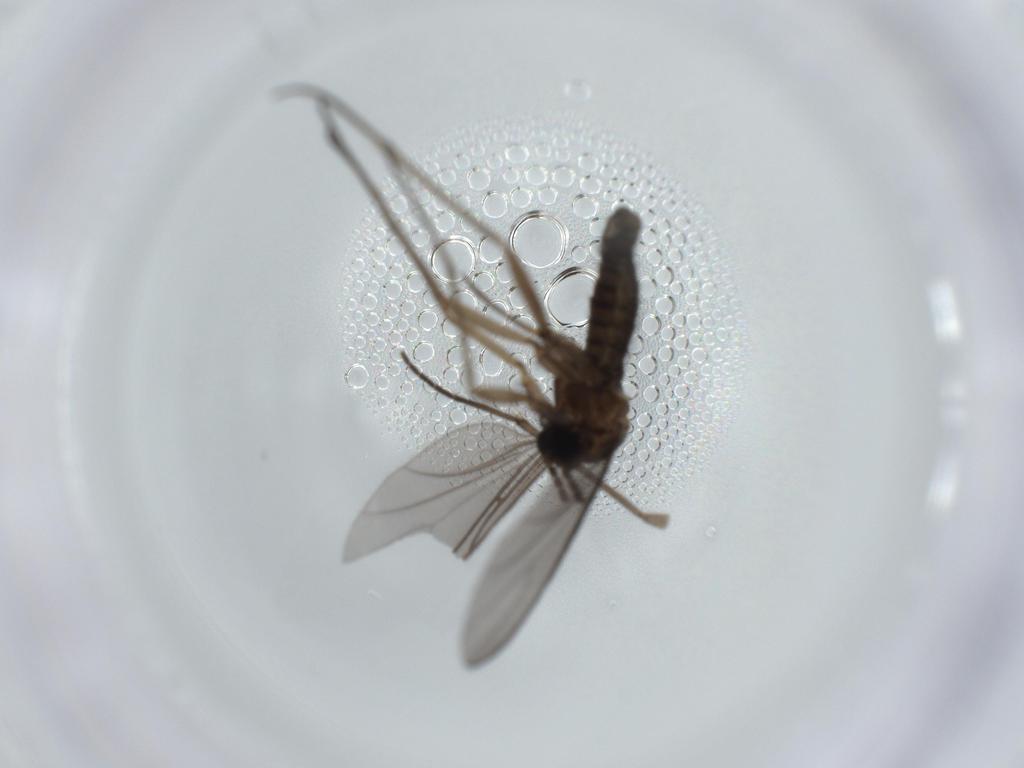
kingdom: Animalia
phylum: Arthropoda
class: Insecta
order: Diptera
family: Sciaridae
